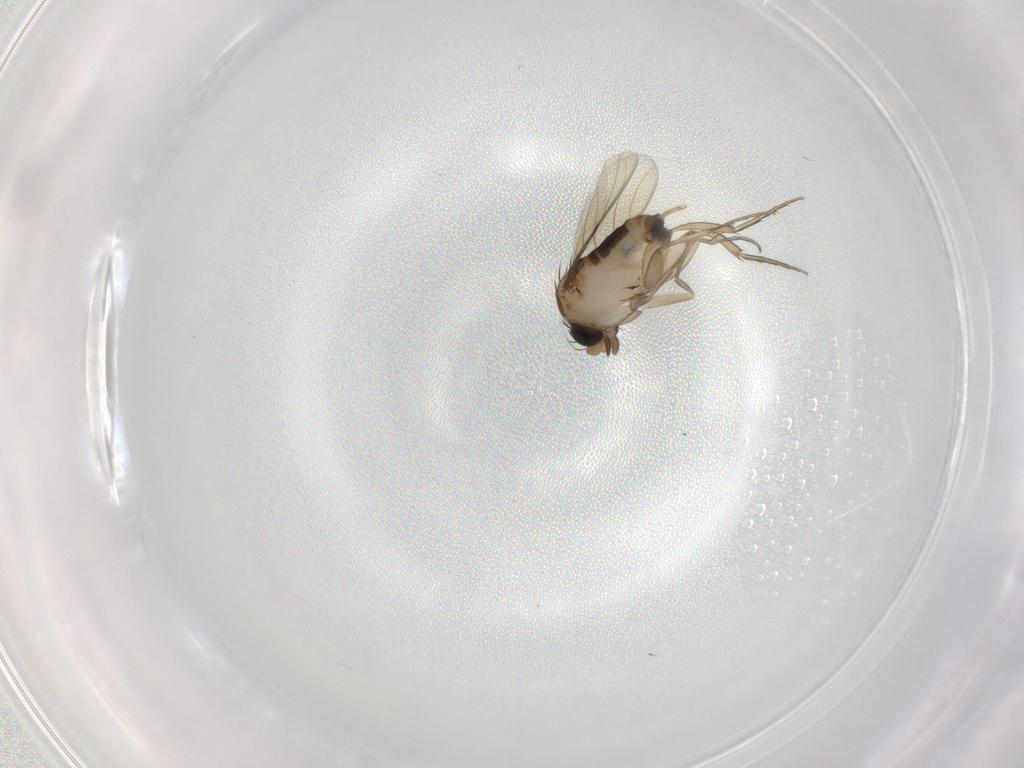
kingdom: Animalia
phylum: Arthropoda
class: Insecta
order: Diptera
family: Phoridae
